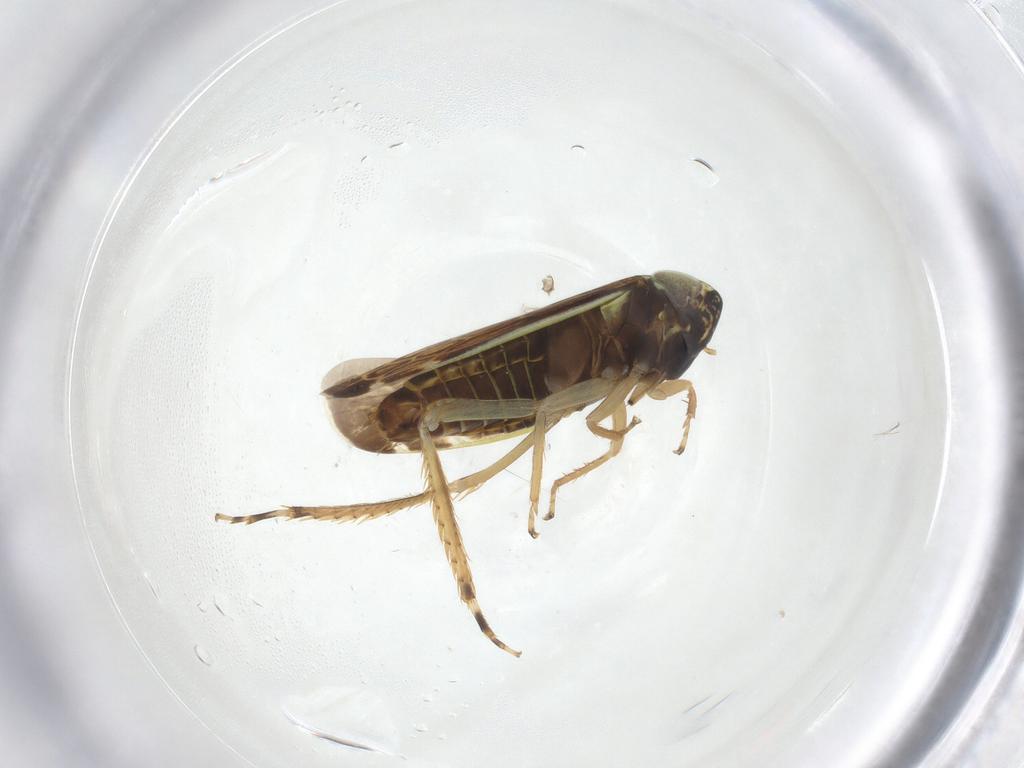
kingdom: Animalia
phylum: Arthropoda
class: Insecta
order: Hemiptera
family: Cicadellidae
